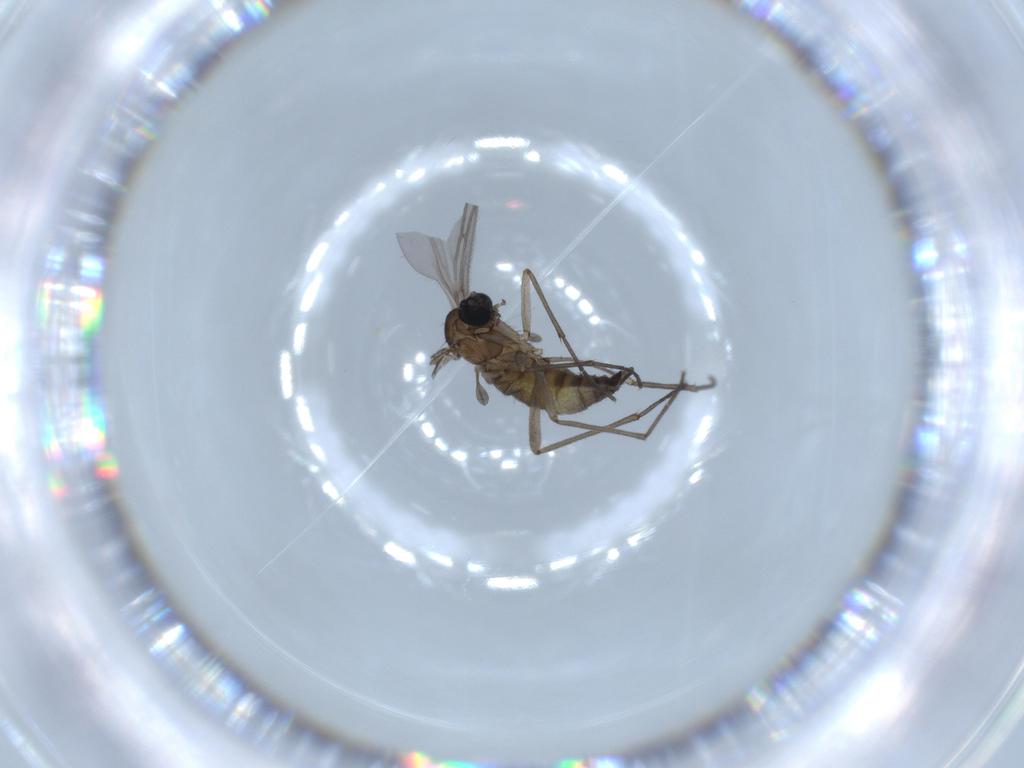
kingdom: Animalia
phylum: Arthropoda
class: Insecta
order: Diptera
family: Sciaridae
